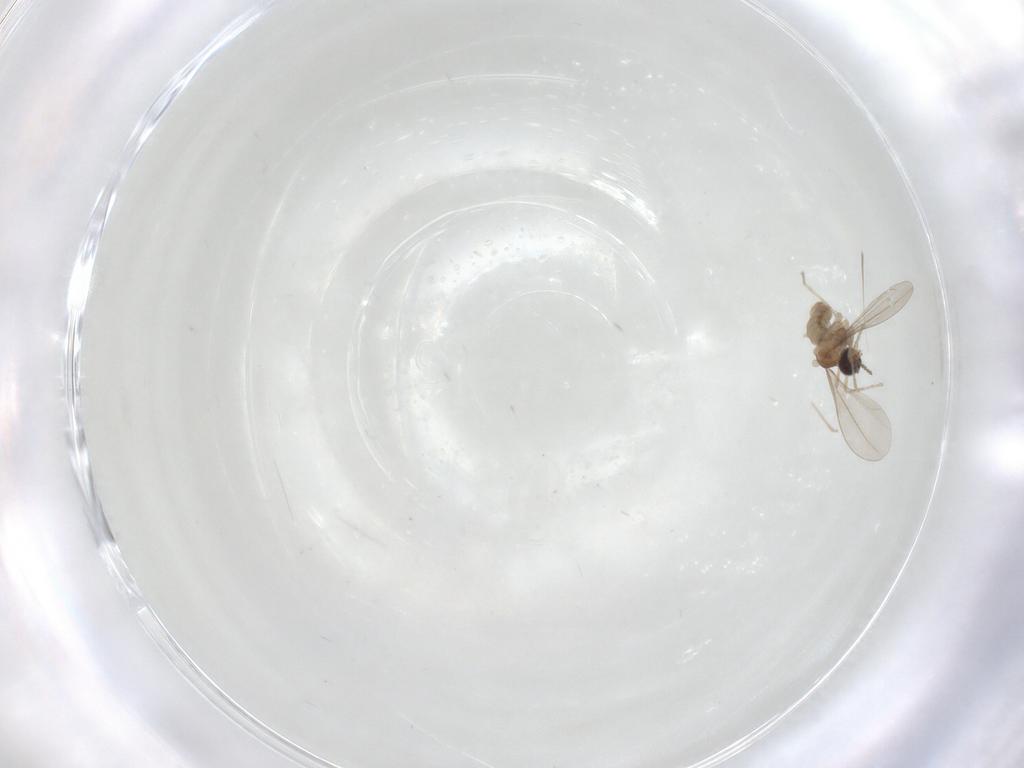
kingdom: Animalia
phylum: Arthropoda
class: Insecta
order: Diptera
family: Cecidomyiidae
